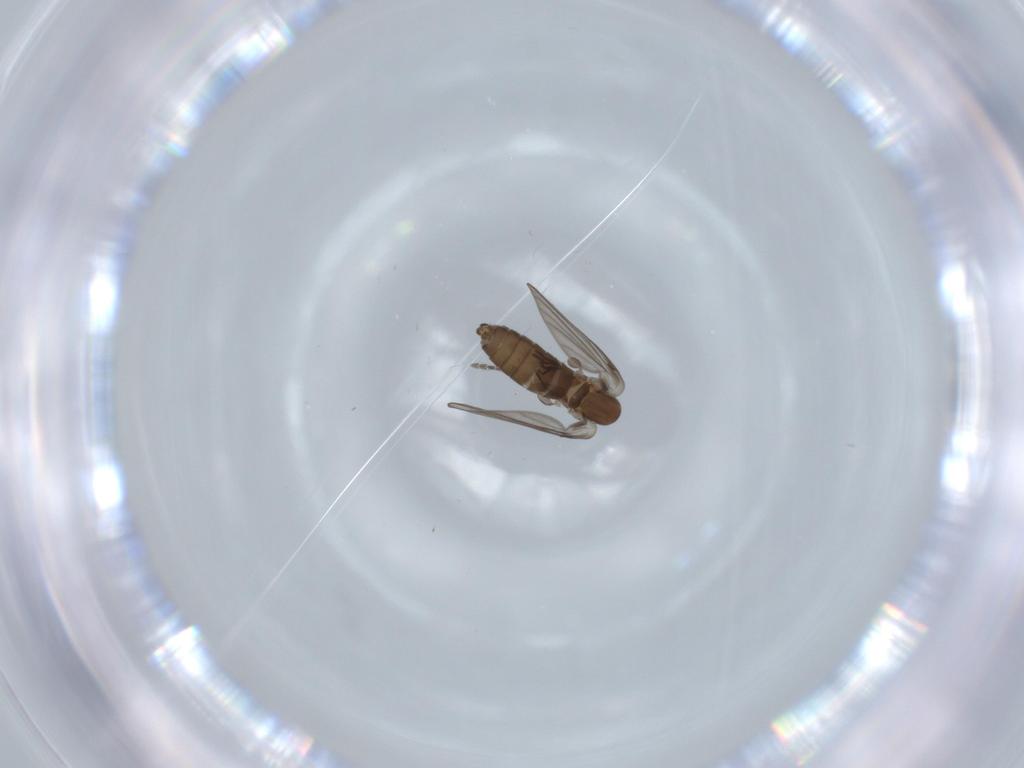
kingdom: Animalia
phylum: Arthropoda
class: Insecta
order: Diptera
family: Psychodidae
